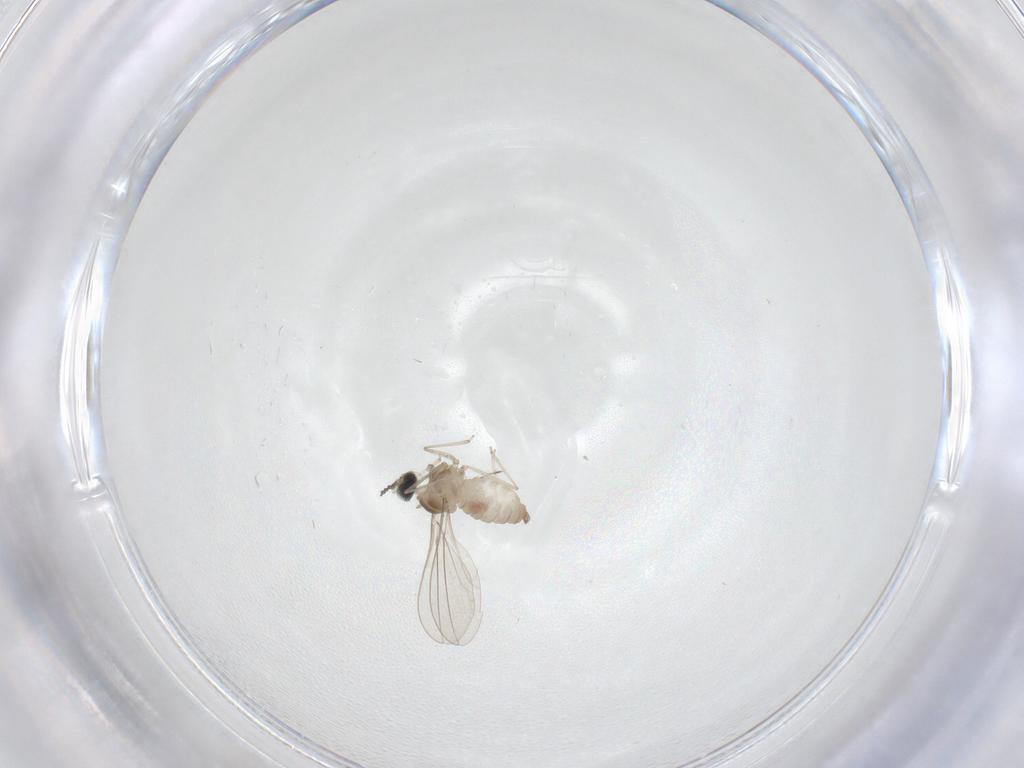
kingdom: Animalia
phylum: Arthropoda
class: Insecta
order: Diptera
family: Ceratopogonidae
